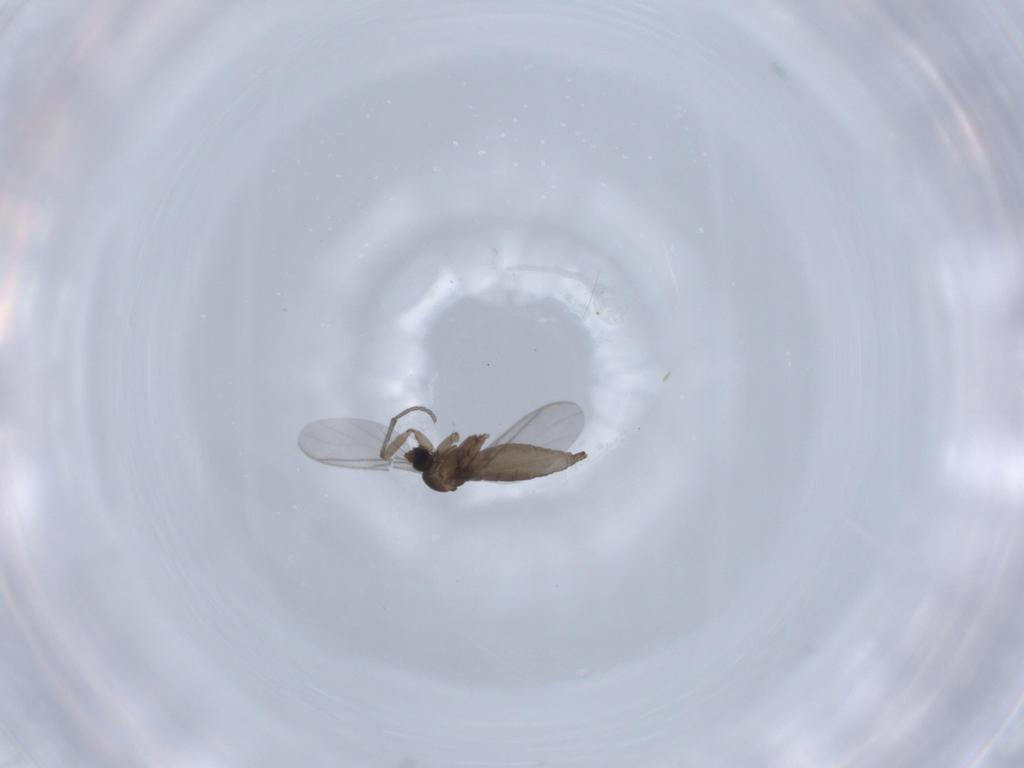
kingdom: Animalia
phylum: Arthropoda
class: Insecta
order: Diptera
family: Sciaridae
